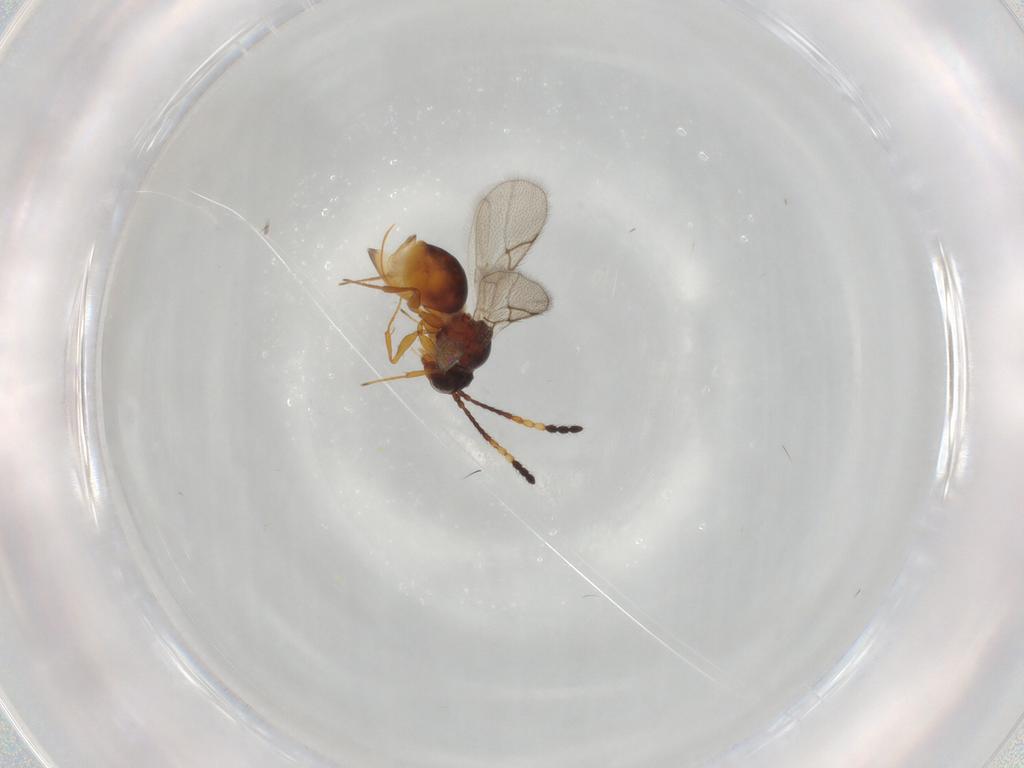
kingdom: Animalia
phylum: Arthropoda
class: Insecta
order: Hymenoptera
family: Figitidae
